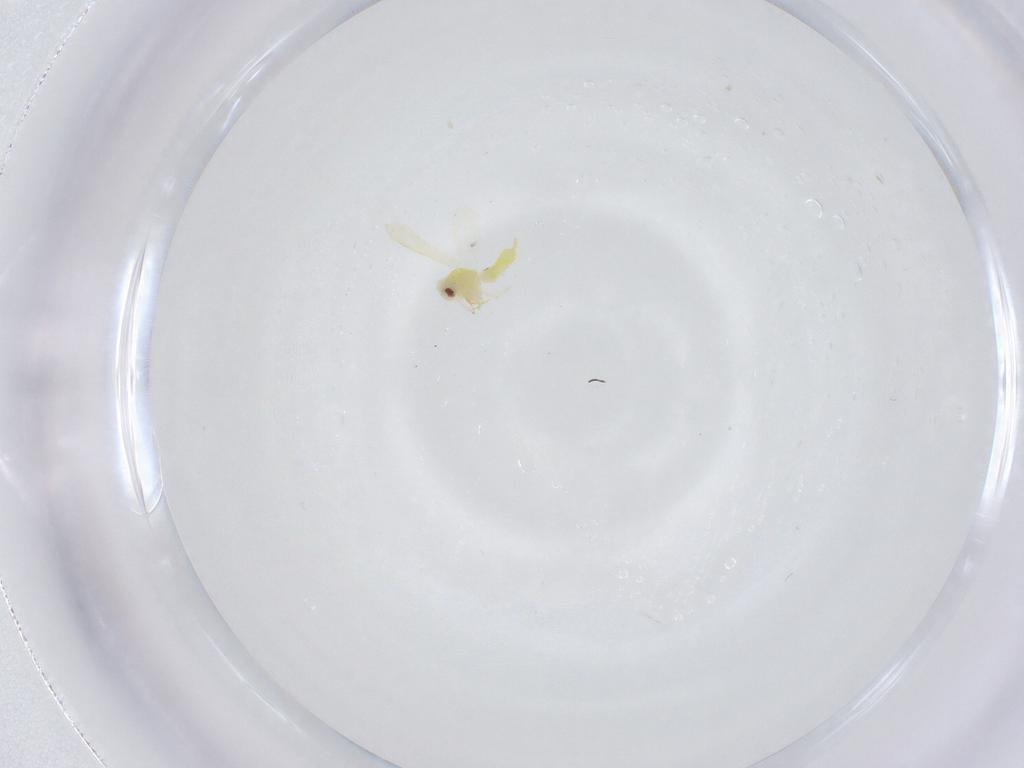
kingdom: Animalia
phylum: Arthropoda
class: Insecta
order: Hemiptera
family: Aleyrodidae
